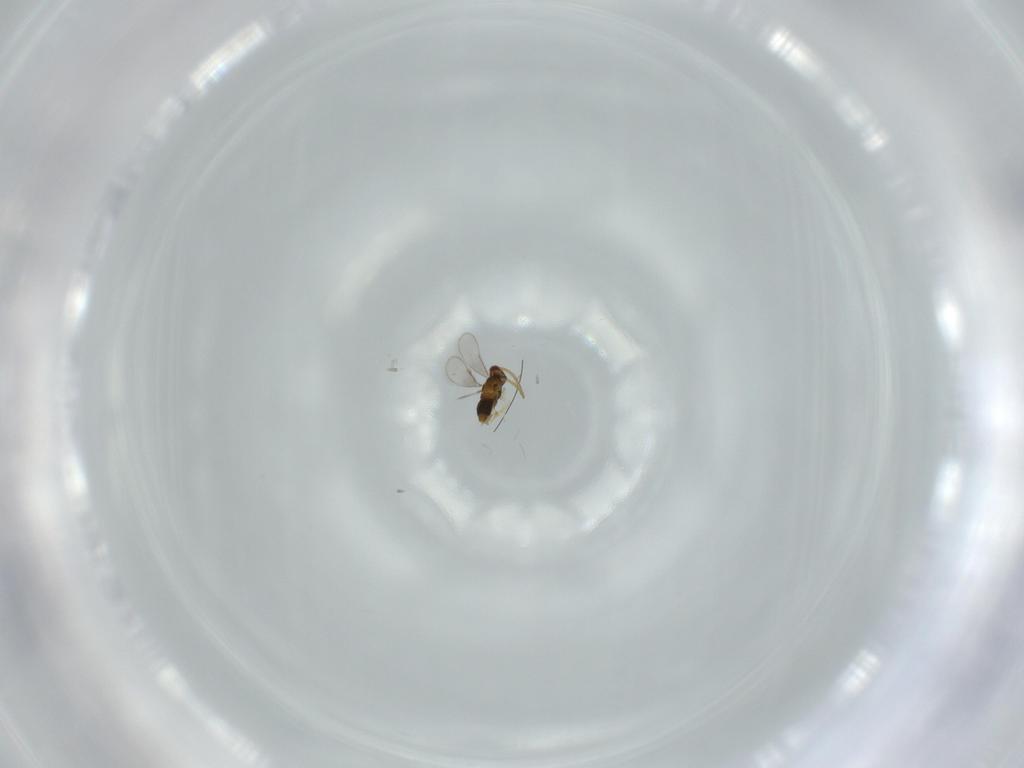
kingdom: Animalia
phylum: Arthropoda
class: Insecta
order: Hymenoptera
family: Aphelinidae
